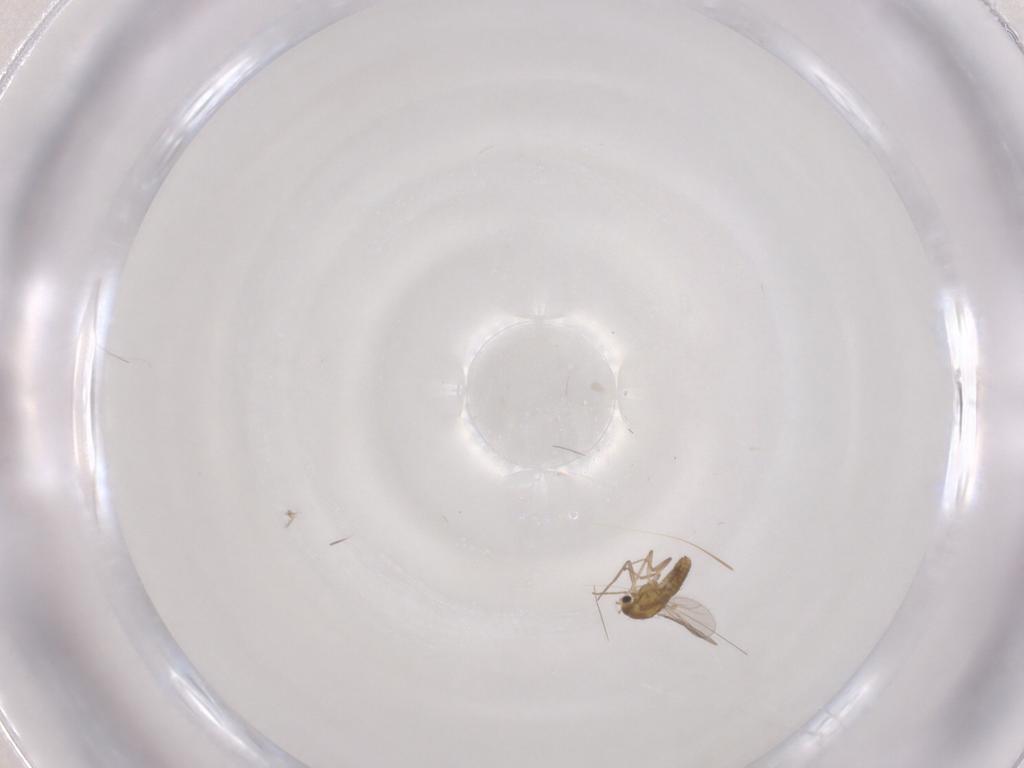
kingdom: Animalia
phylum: Arthropoda
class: Insecta
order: Diptera
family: Chironomidae
